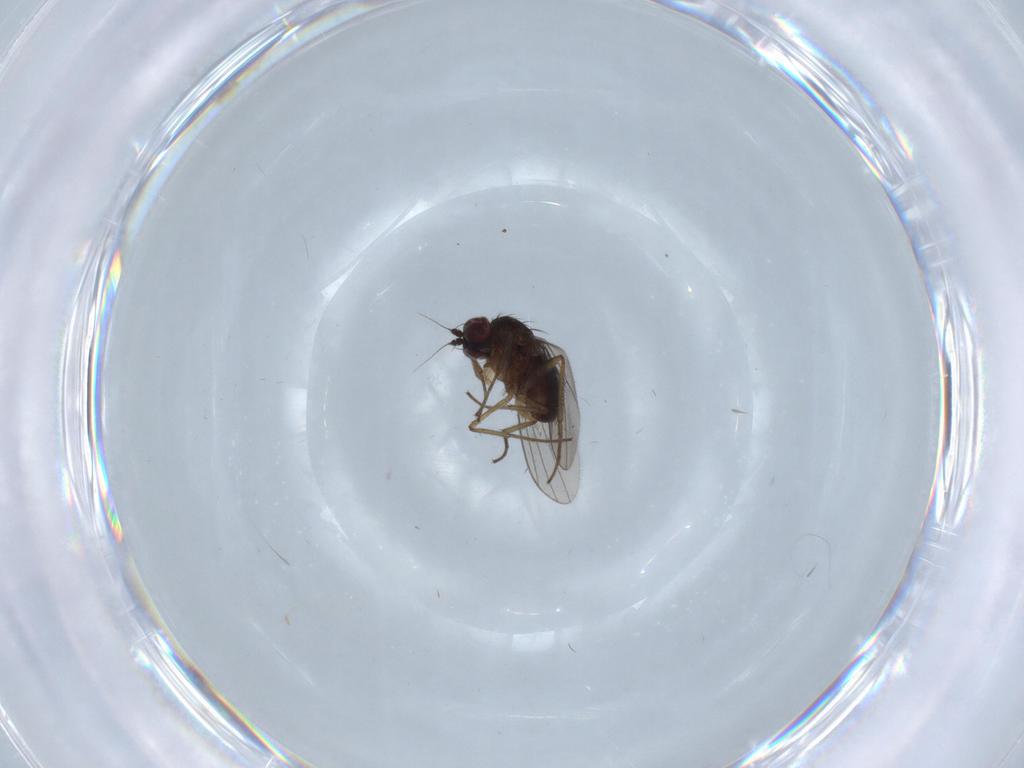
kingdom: Animalia
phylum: Arthropoda
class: Insecta
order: Diptera
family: Dolichopodidae
